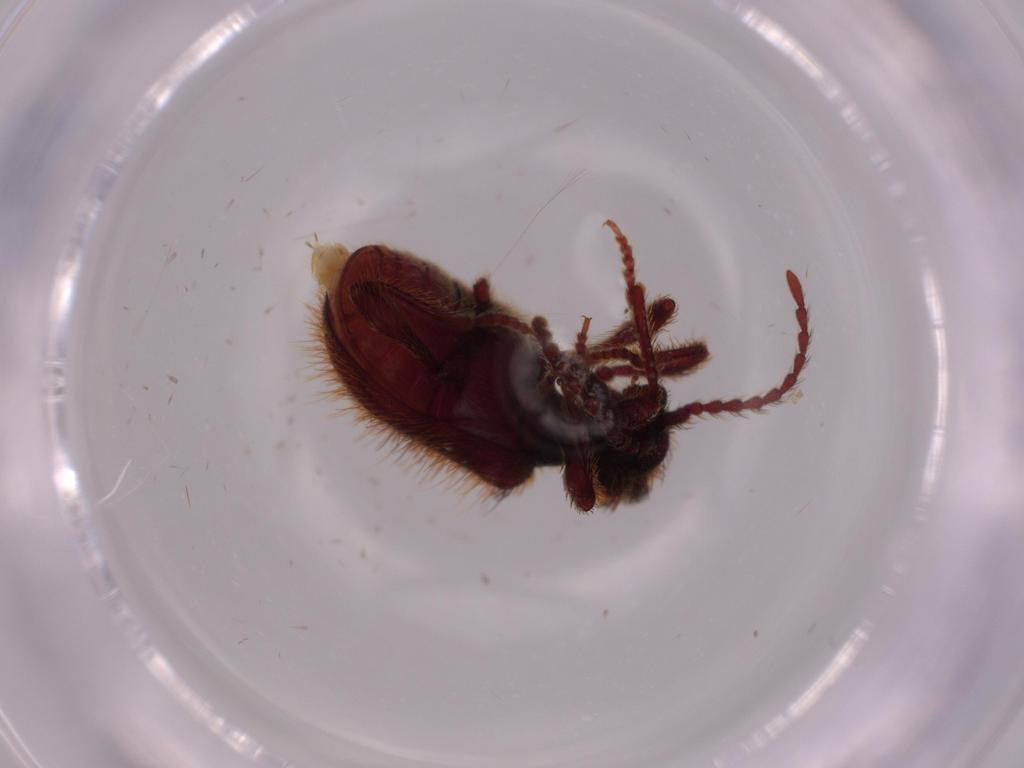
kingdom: Animalia
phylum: Arthropoda
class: Insecta
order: Coleoptera
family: Chrysomelidae
